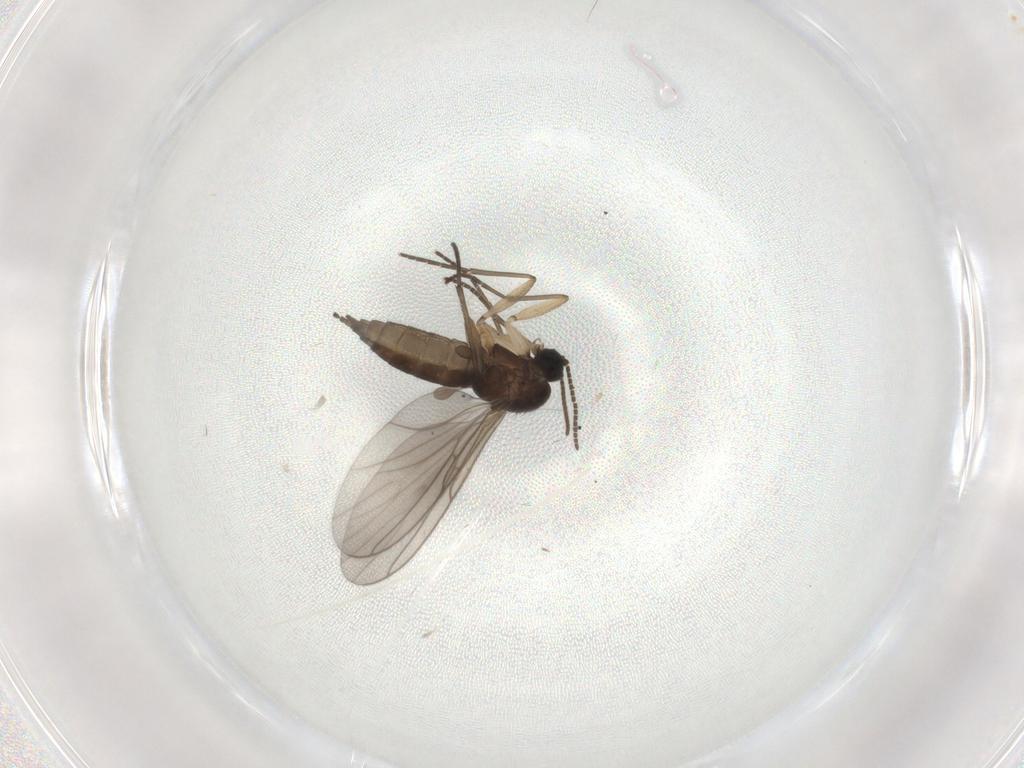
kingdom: Animalia
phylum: Arthropoda
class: Insecta
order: Diptera
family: Sciaridae
